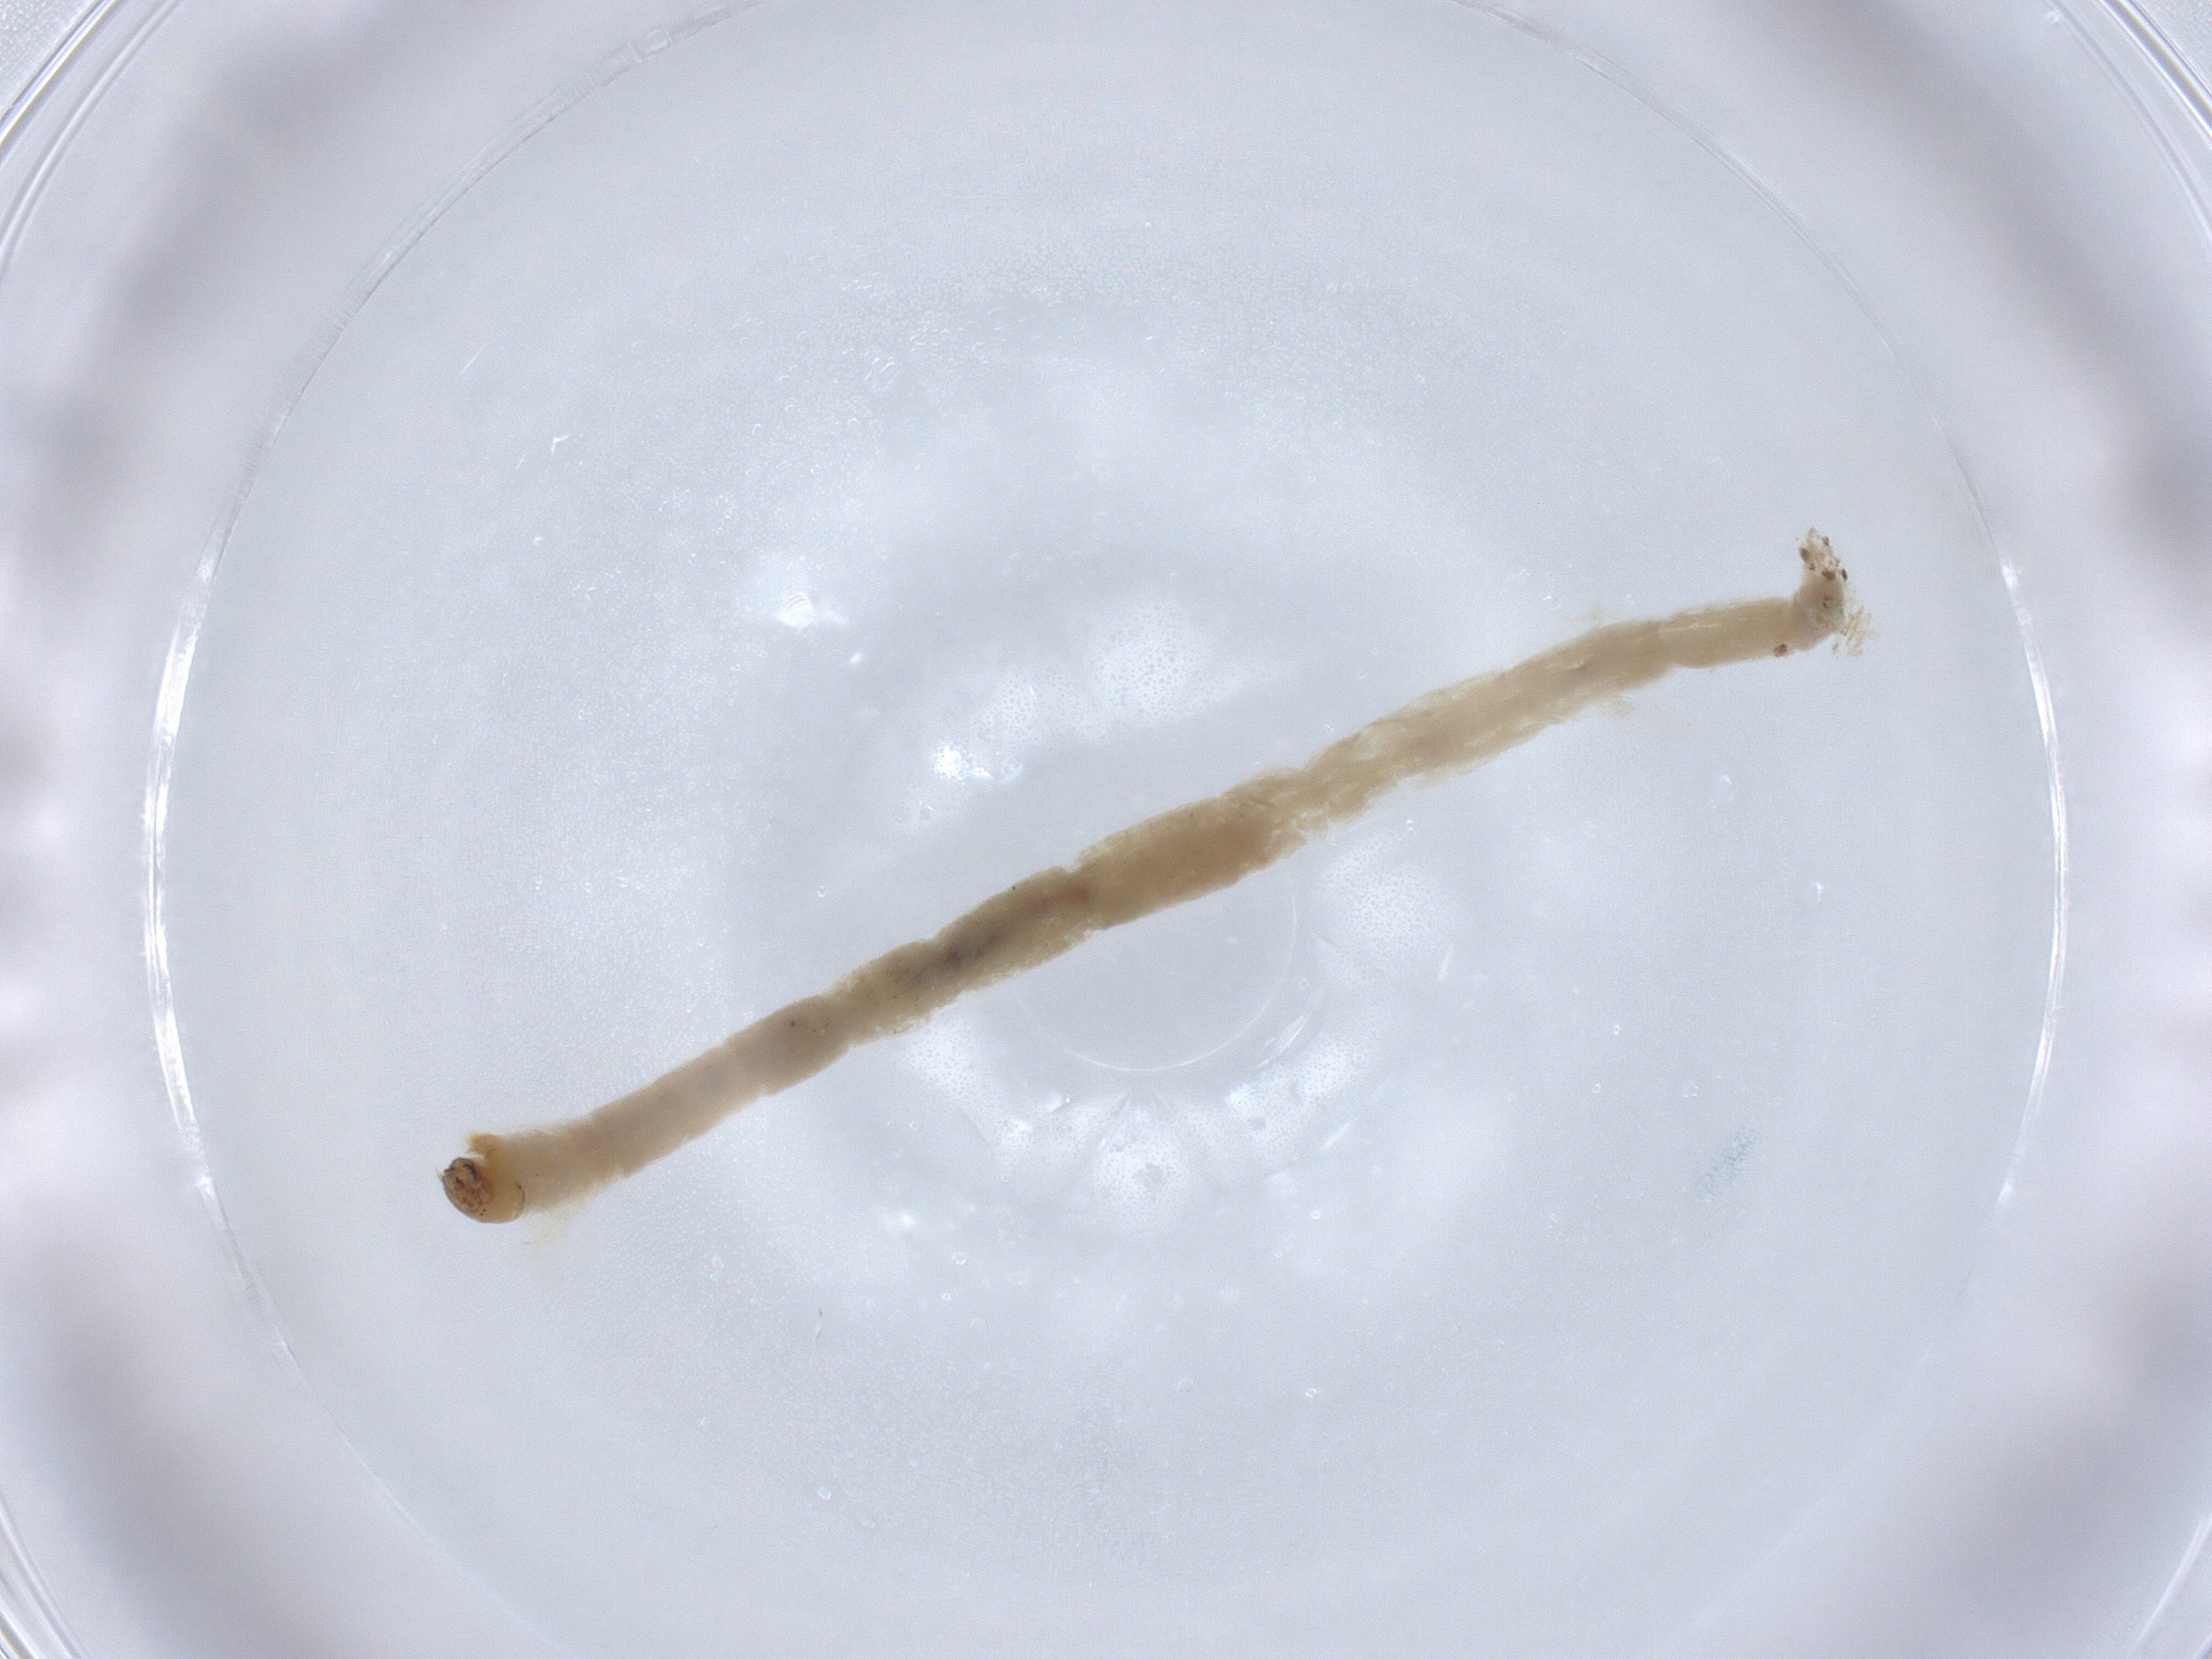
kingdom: Animalia
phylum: Arthropoda
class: Insecta
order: Diptera
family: Chironomidae
